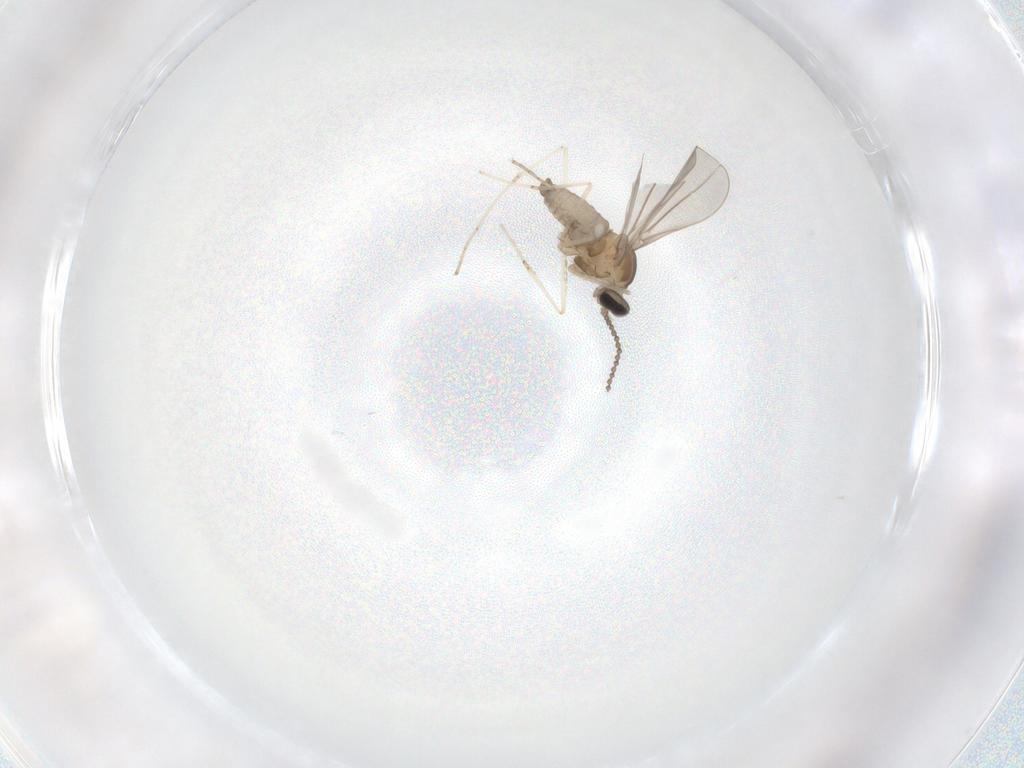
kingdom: Animalia
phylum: Arthropoda
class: Insecta
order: Diptera
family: Cecidomyiidae
